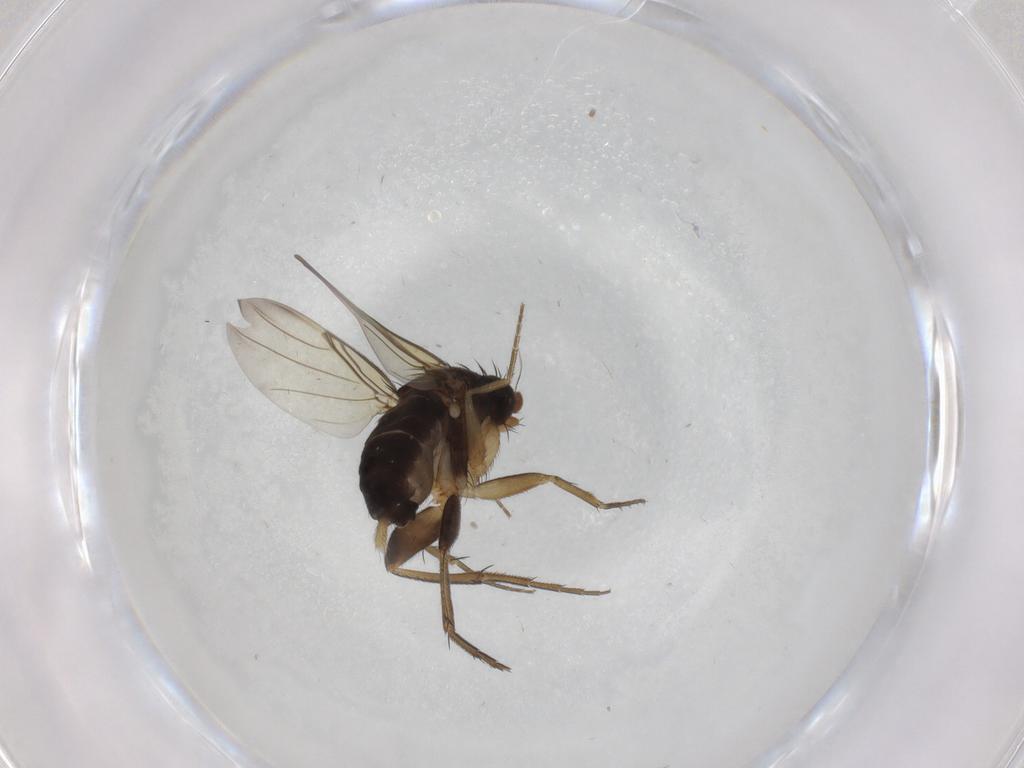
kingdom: Animalia
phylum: Arthropoda
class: Insecta
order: Diptera
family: Phoridae
